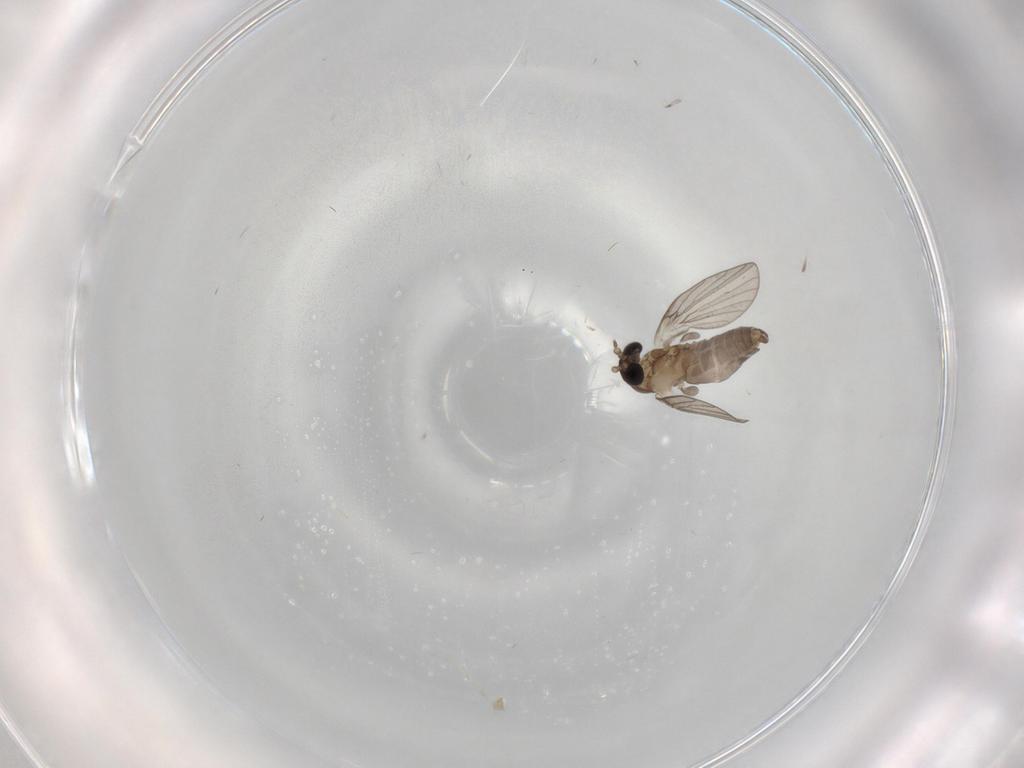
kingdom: Animalia
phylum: Arthropoda
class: Insecta
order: Diptera
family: Psychodidae
